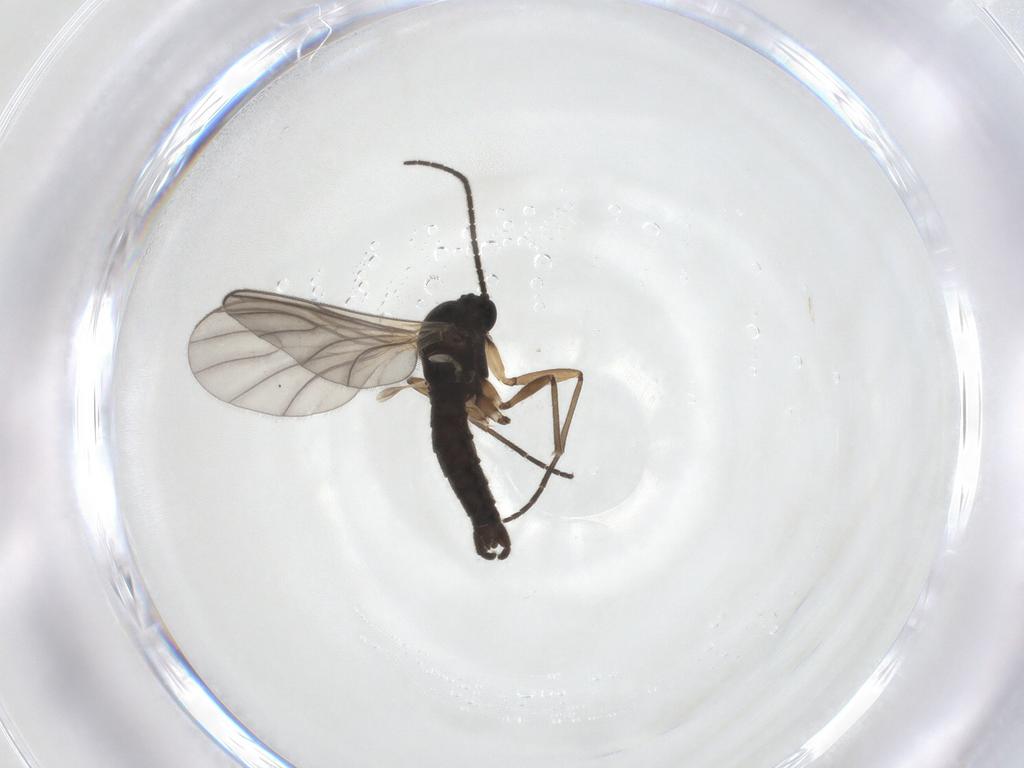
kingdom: Animalia
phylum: Arthropoda
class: Insecta
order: Diptera
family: Sciaridae
